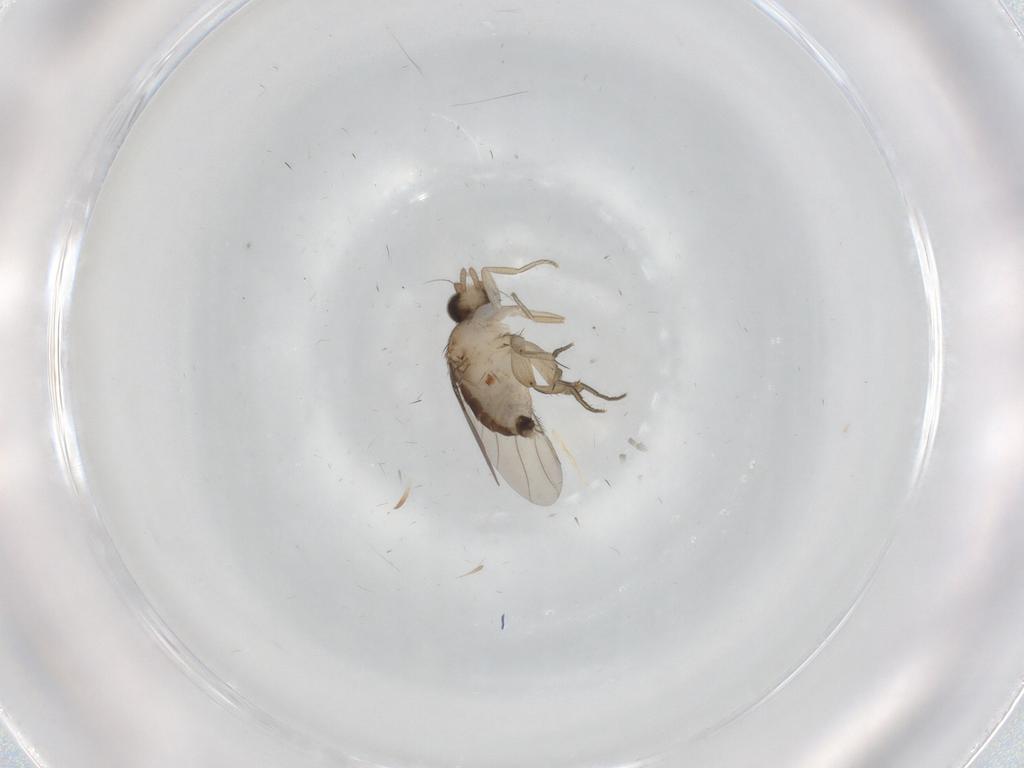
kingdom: Animalia
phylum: Arthropoda
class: Insecta
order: Diptera
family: Phoridae
